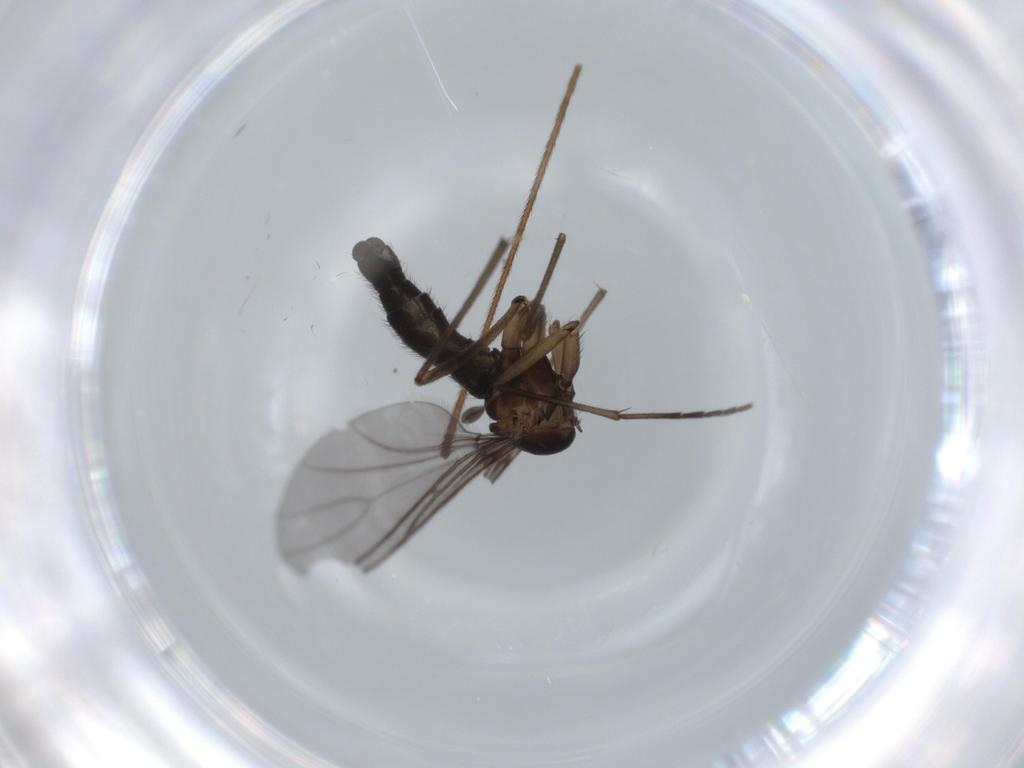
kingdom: Animalia
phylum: Arthropoda
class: Insecta
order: Diptera
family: Sciaridae
